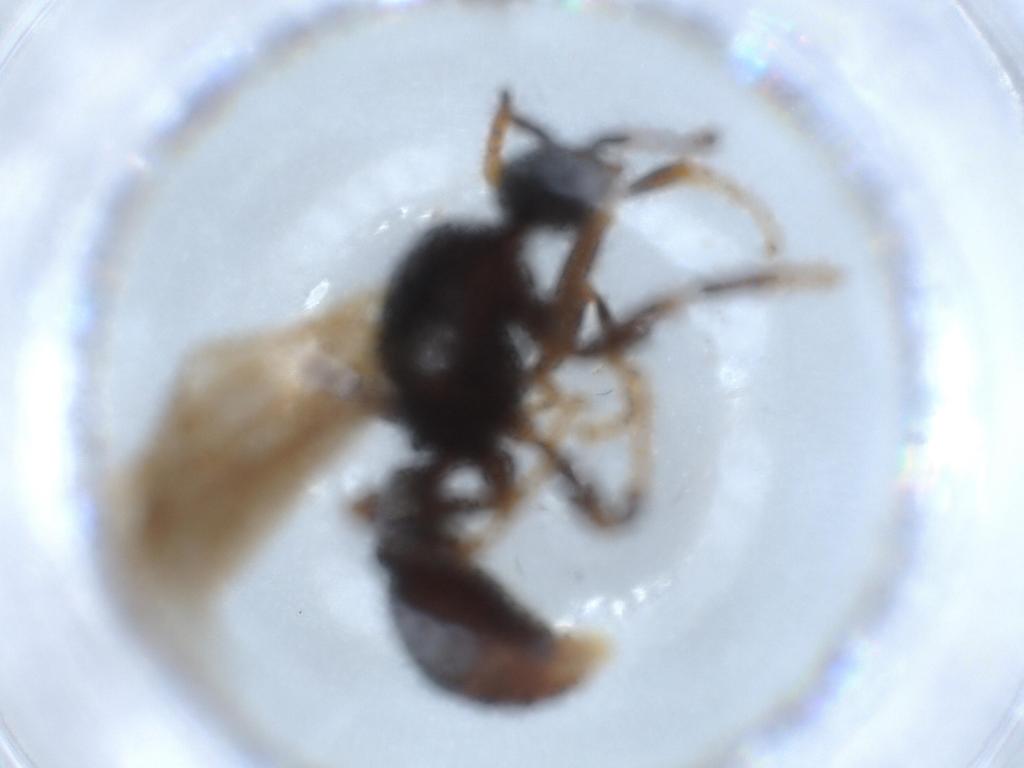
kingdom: Animalia
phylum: Arthropoda
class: Insecta
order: Hymenoptera
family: Formicidae
